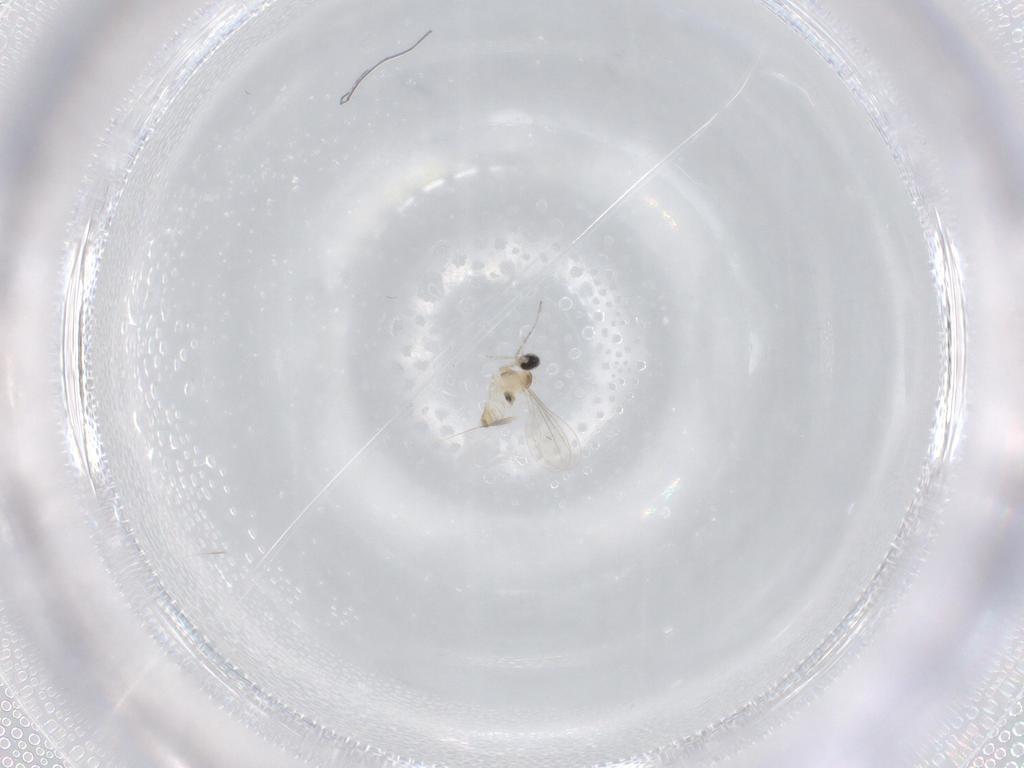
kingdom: Animalia
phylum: Arthropoda
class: Insecta
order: Diptera
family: Cecidomyiidae
